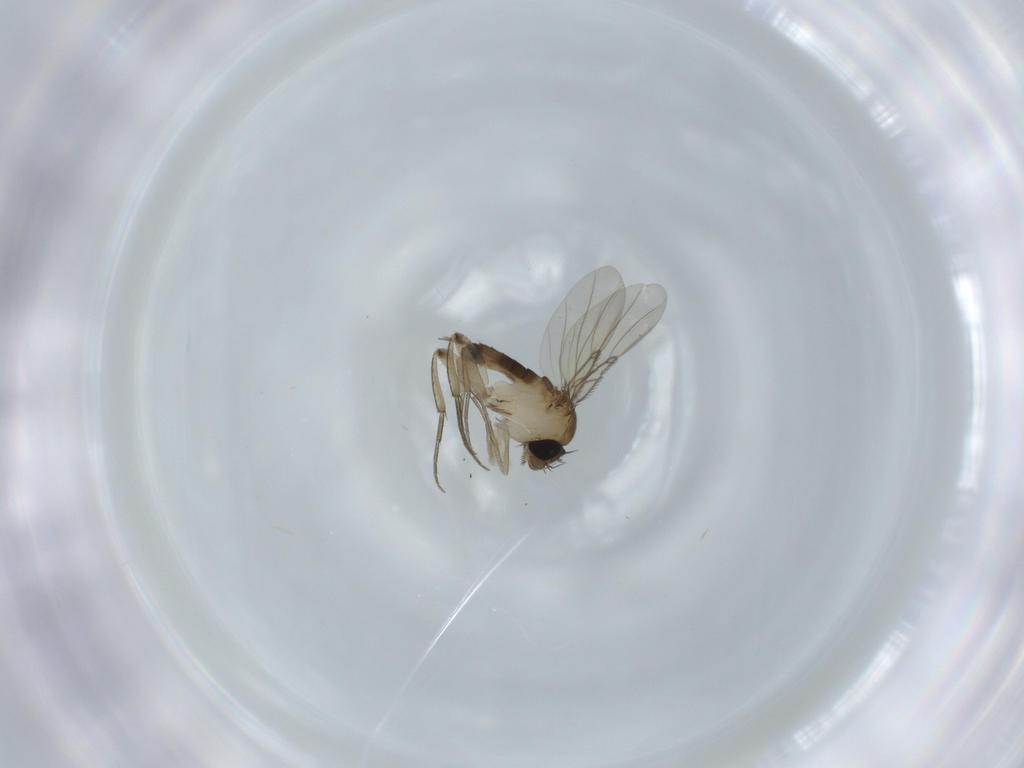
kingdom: Animalia
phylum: Arthropoda
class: Insecta
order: Diptera
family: Phoridae
